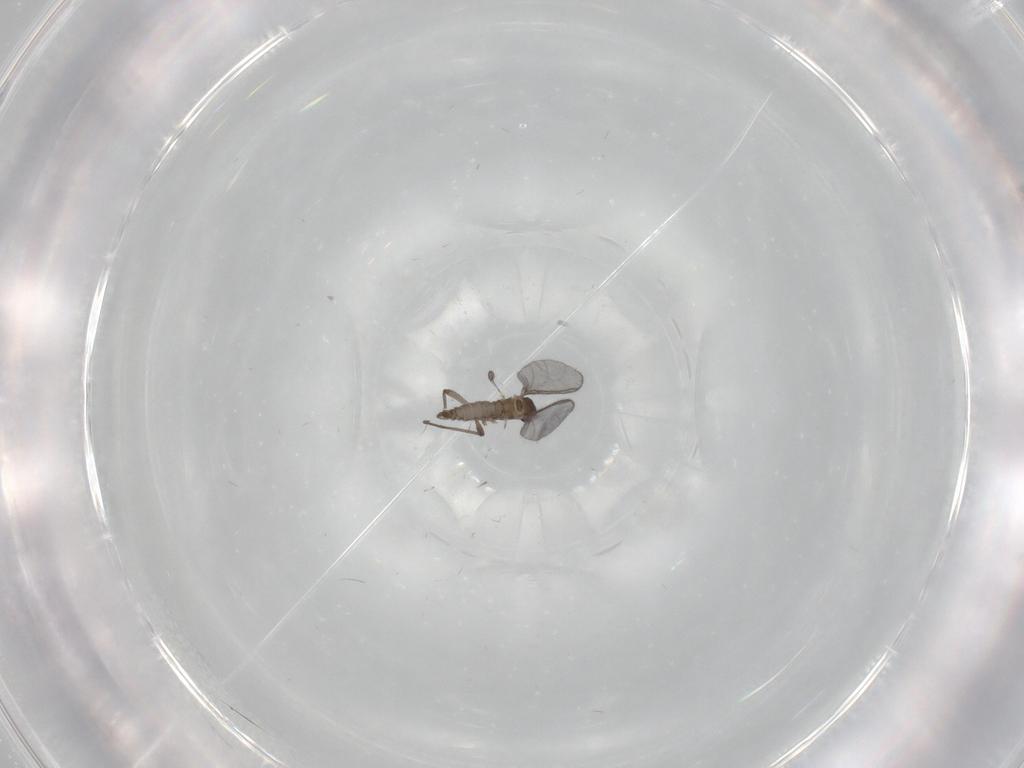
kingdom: Animalia
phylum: Arthropoda
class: Insecta
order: Diptera
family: Sciaridae
